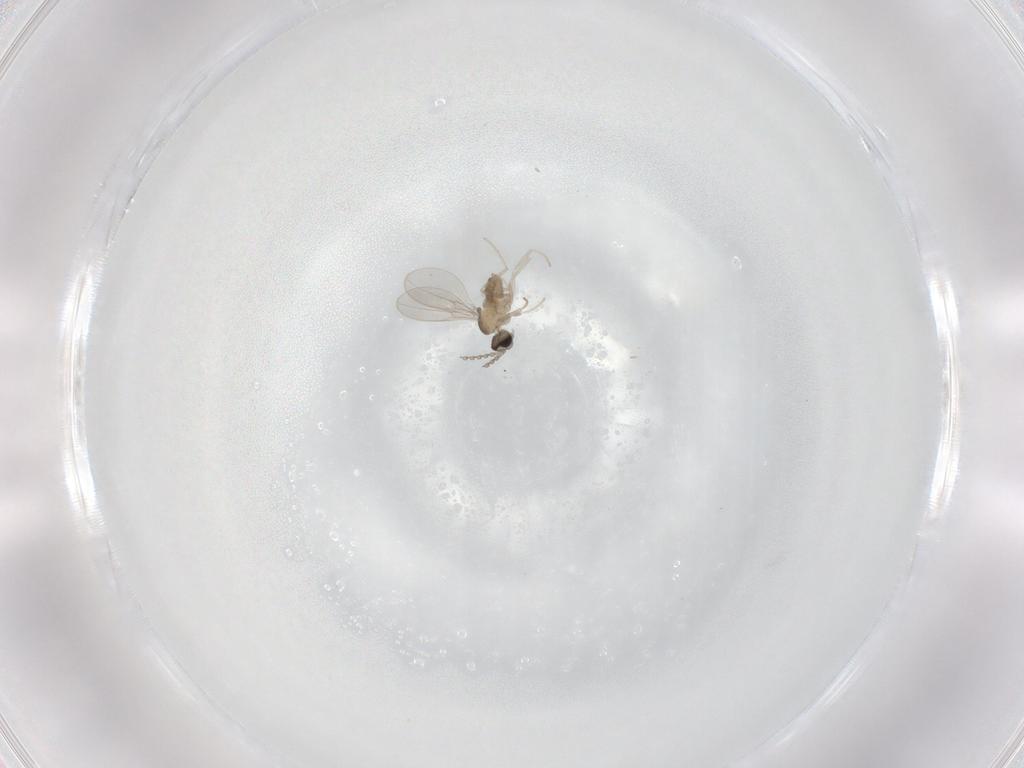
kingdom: Animalia
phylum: Arthropoda
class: Insecta
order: Diptera
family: Cecidomyiidae
